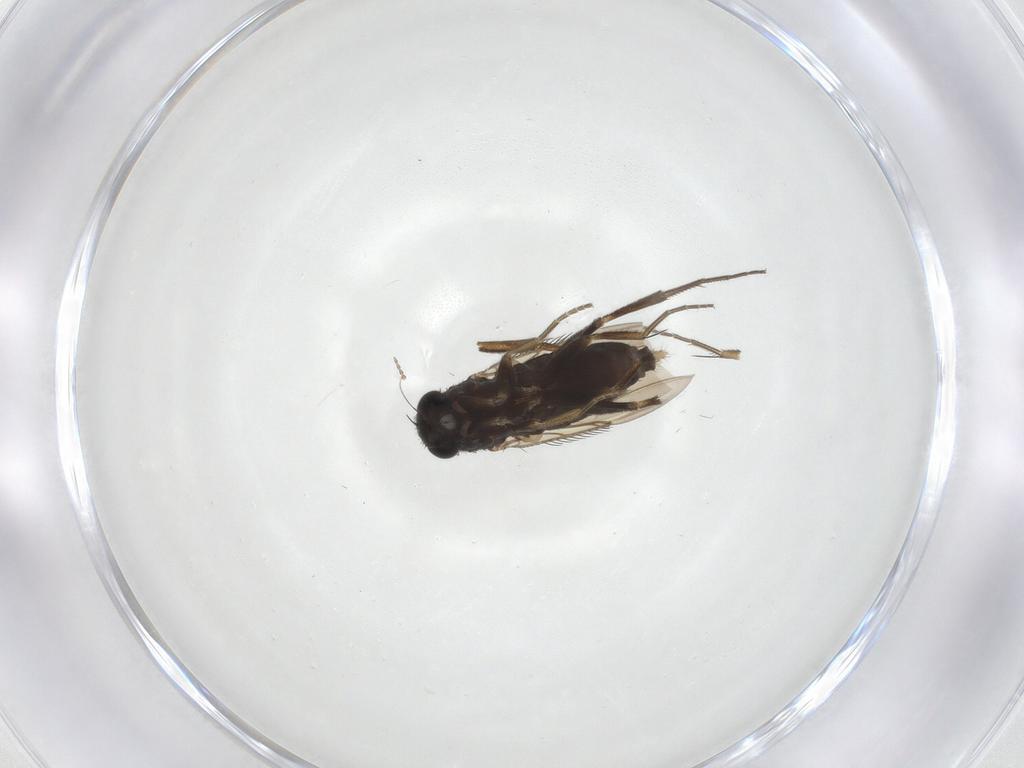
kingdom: Animalia
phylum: Arthropoda
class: Insecta
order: Diptera
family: Phoridae
